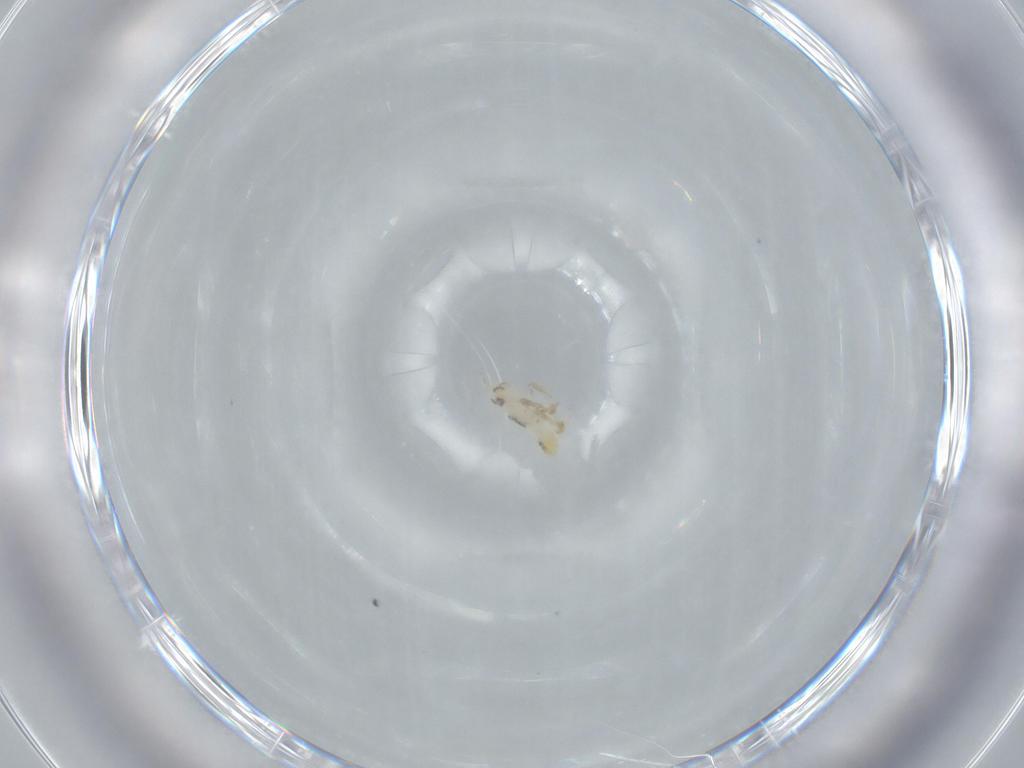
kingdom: Animalia
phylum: Arthropoda
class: Insecta
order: Hemiptera
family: Delphacidae
